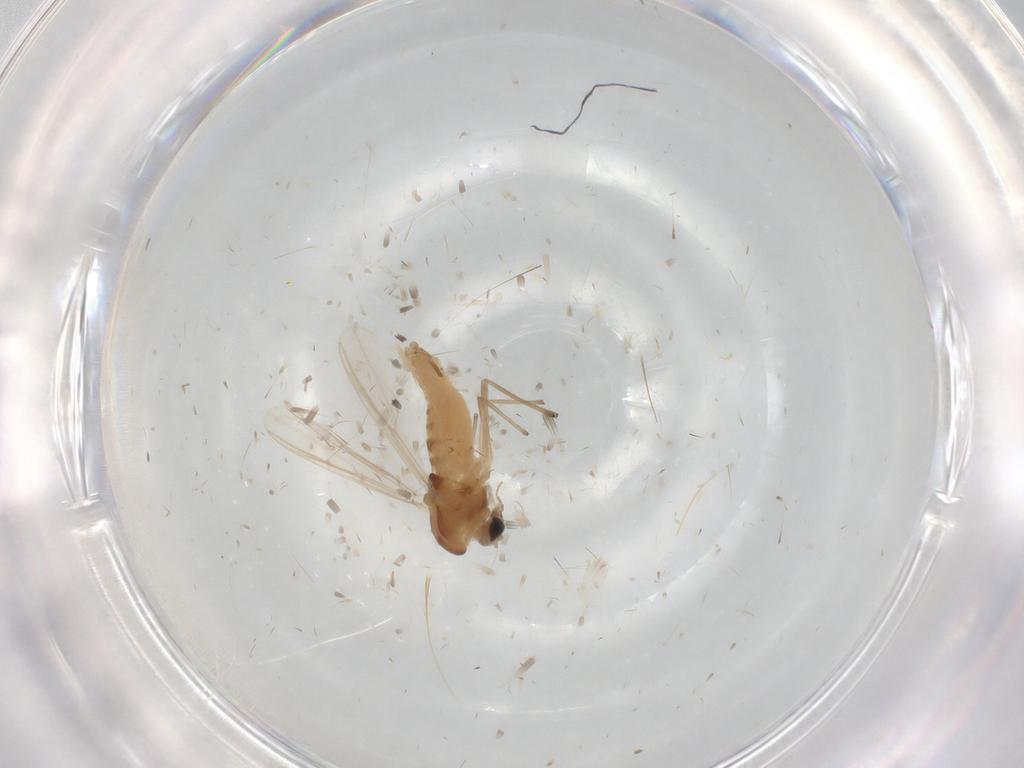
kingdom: Animalia
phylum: Arthropoda
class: Insecta
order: Diptera
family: Chironomidae
